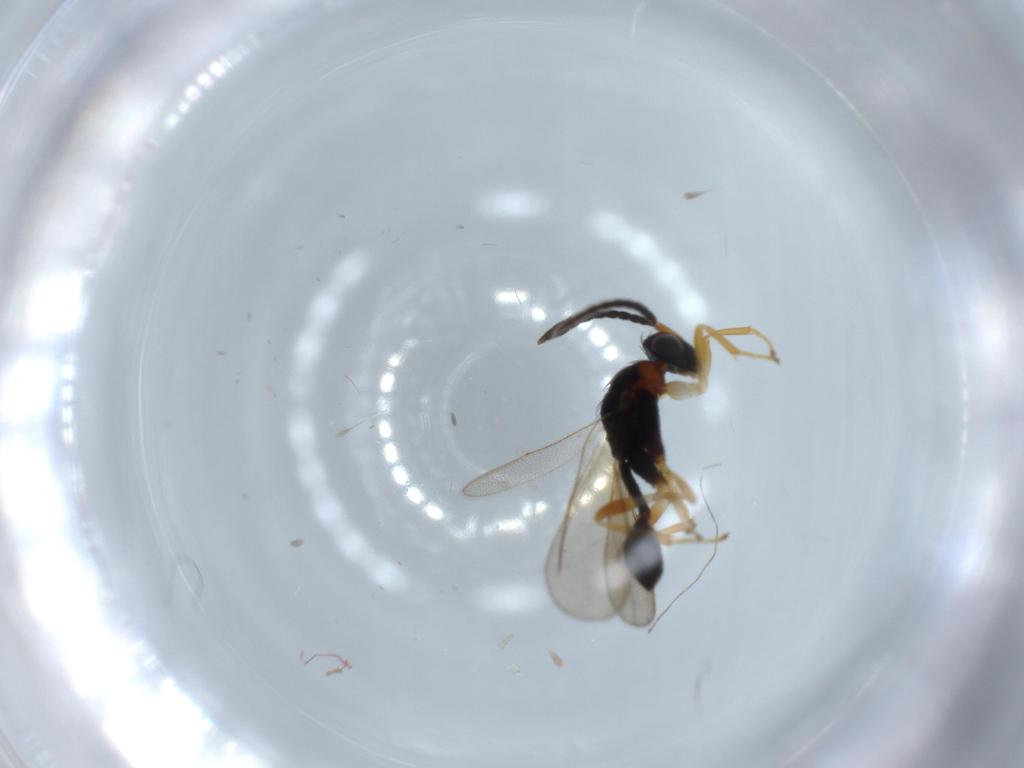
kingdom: Animalia
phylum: Arthropoda
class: Insecta
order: Hymenoptera
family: Diparidae
